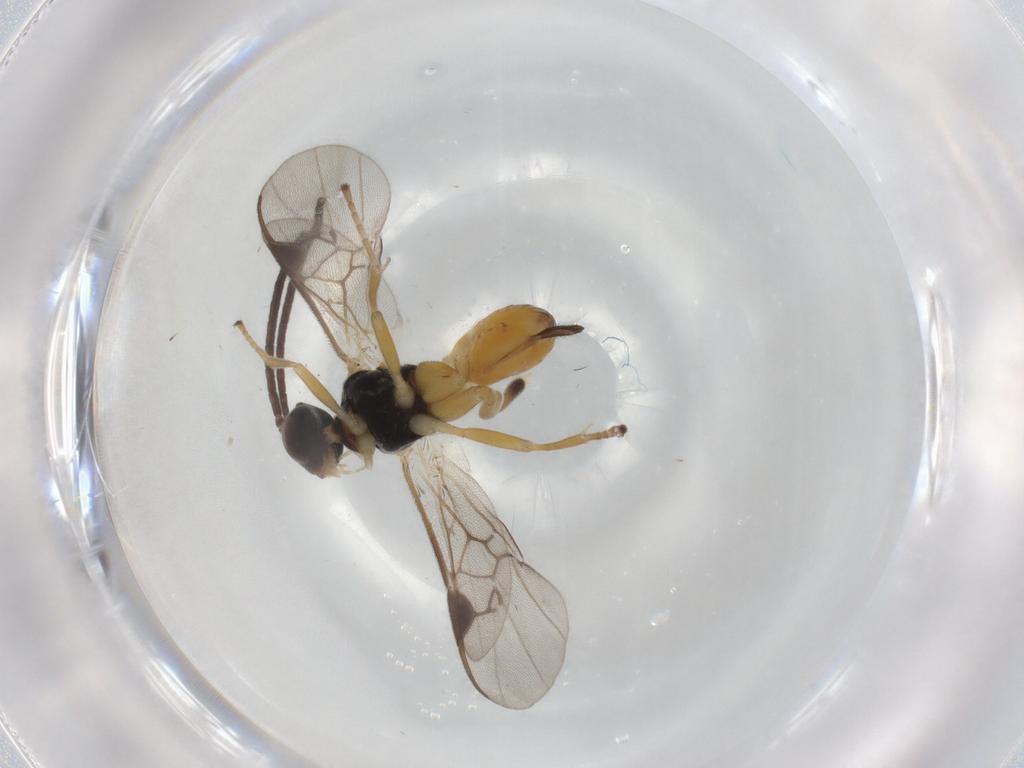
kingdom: Animalia
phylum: Arthropoda
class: Insecta
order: Hymenoptera
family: Braconidae
